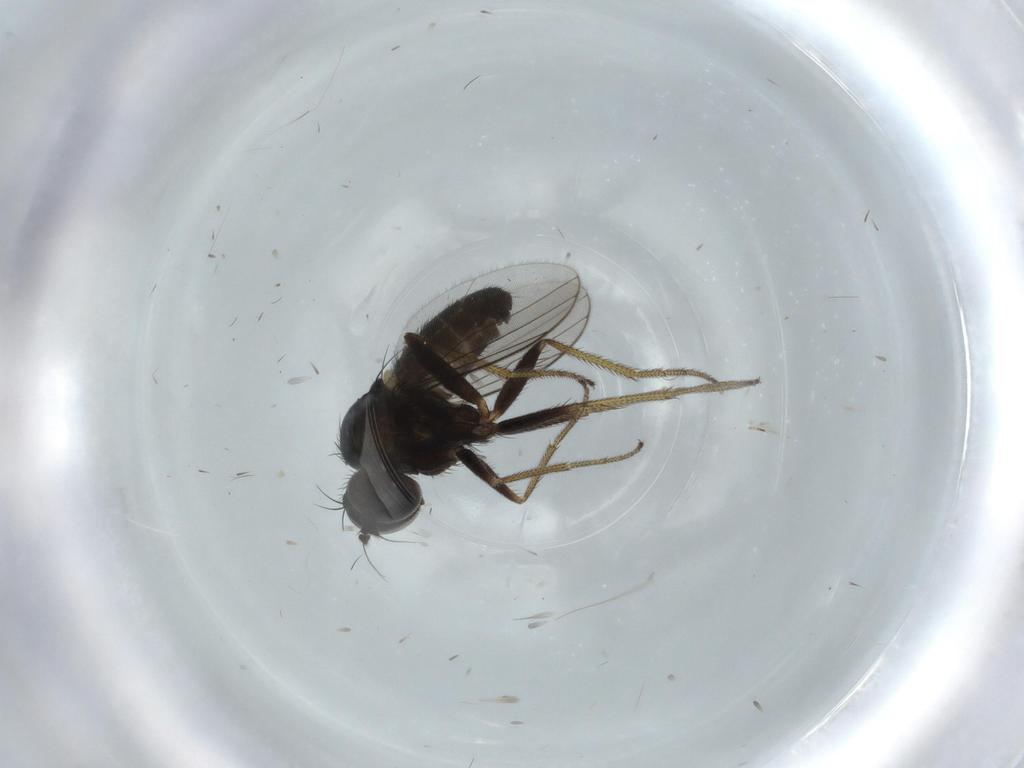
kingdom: Animalia
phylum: Arthropoda
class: Insecta
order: Diptera
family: Dolichopodidae
